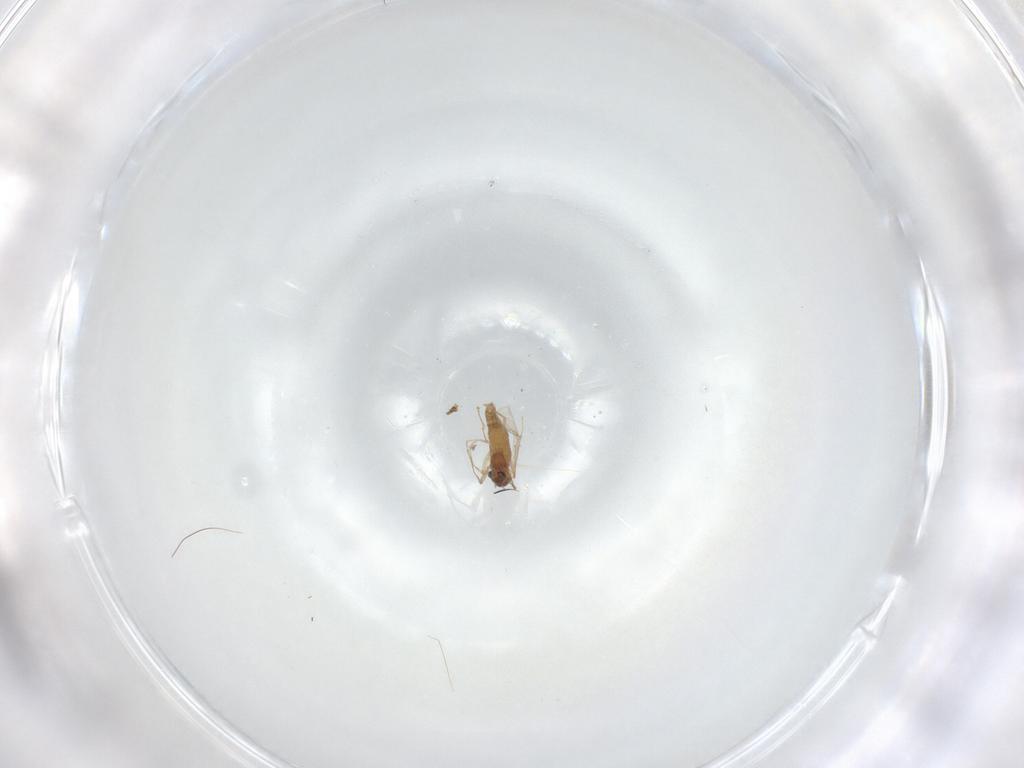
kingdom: Animalia
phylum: Arthropoda
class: Insecta
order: Diptera
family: Chironomidae
